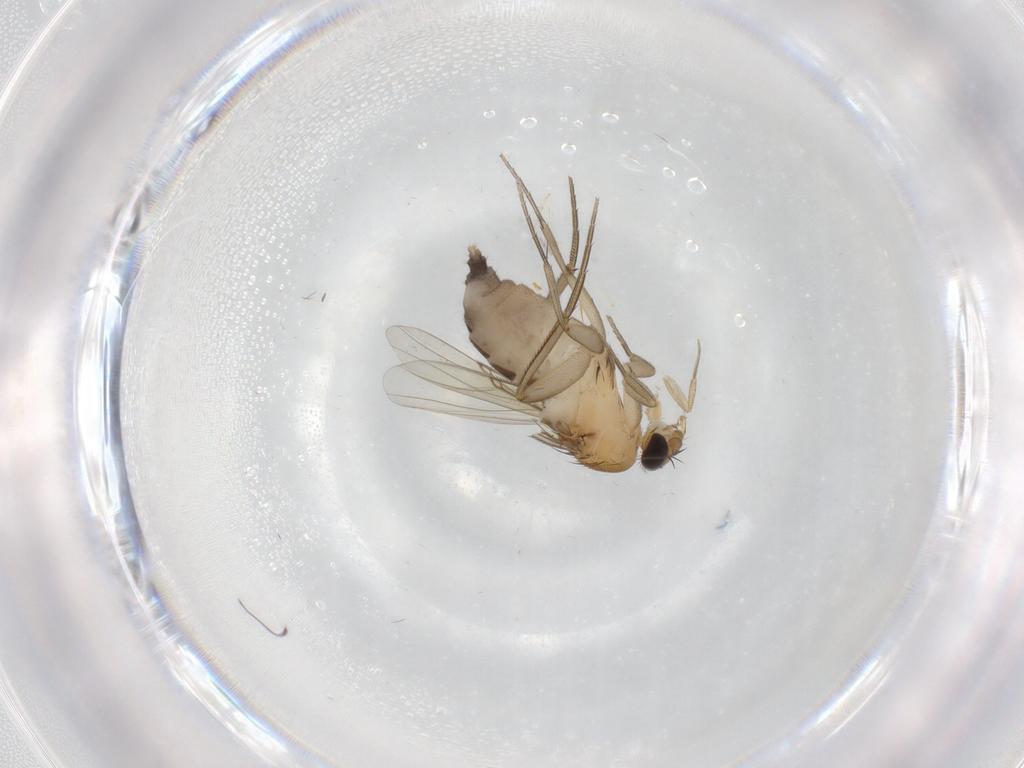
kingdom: Animalia
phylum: Arthropoda
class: Insecta
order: Diptera
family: Phoridae
